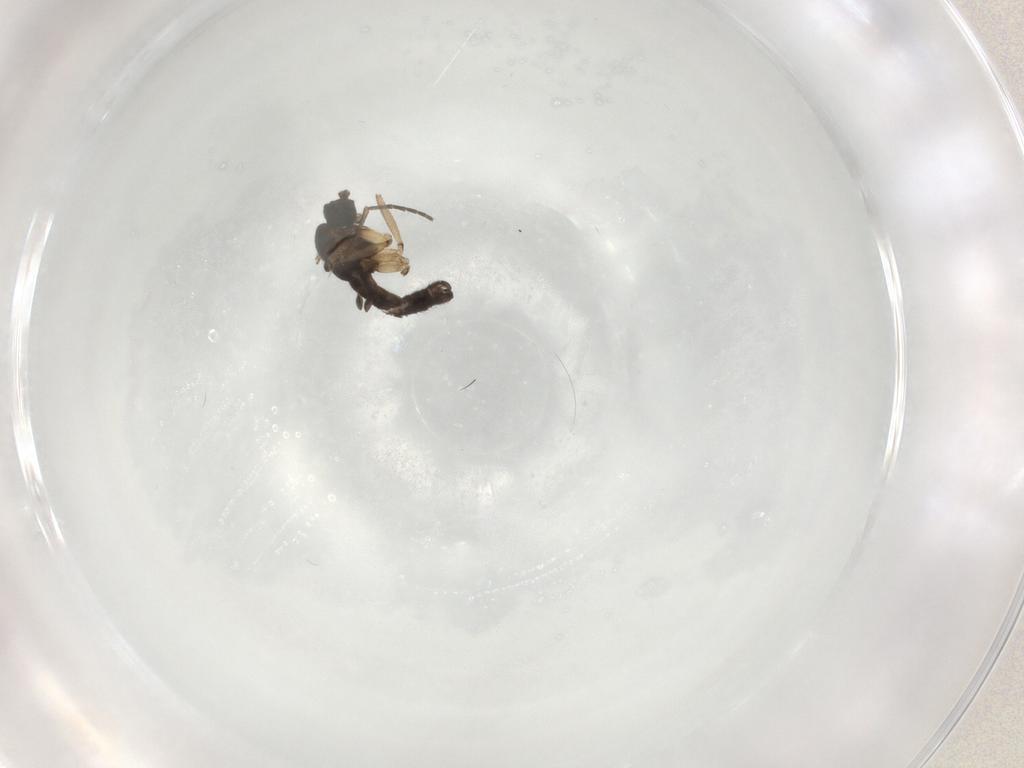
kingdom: Animalia
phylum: Arthropoda
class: Insecta
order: Diptera
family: Sciaridae
